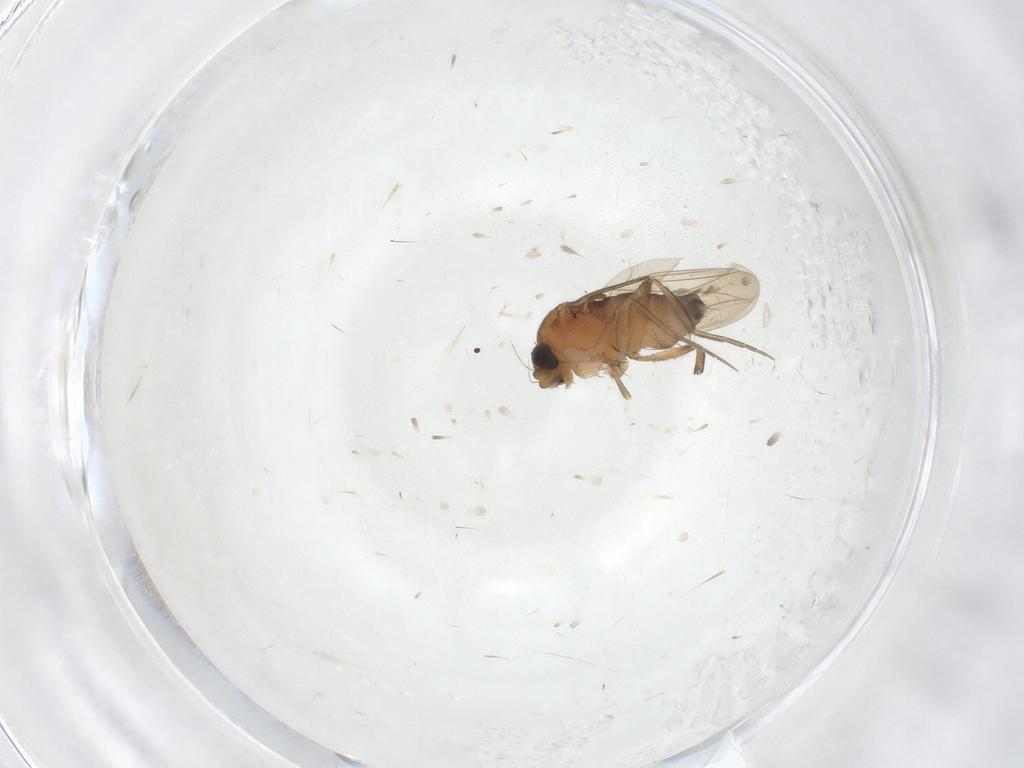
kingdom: Animalia
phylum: Arthropoda
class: Insecta
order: Diptera
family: Phoridae
